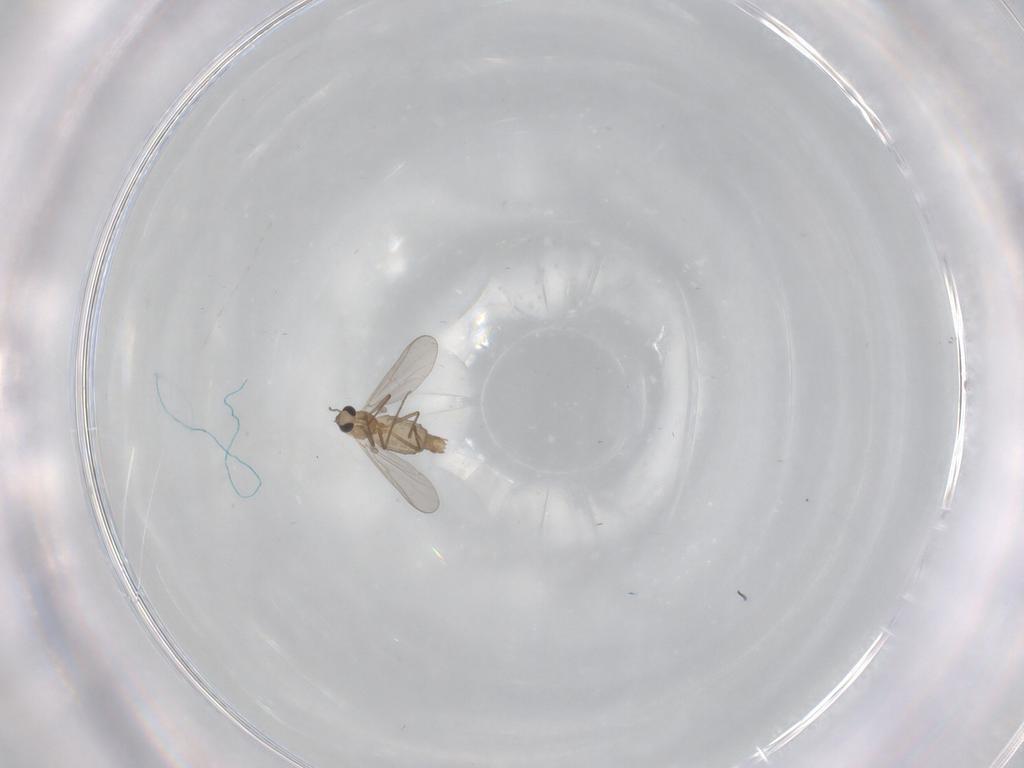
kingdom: Animalia
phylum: Arthropoda
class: Insecta
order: Diptera
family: Chironomidae
